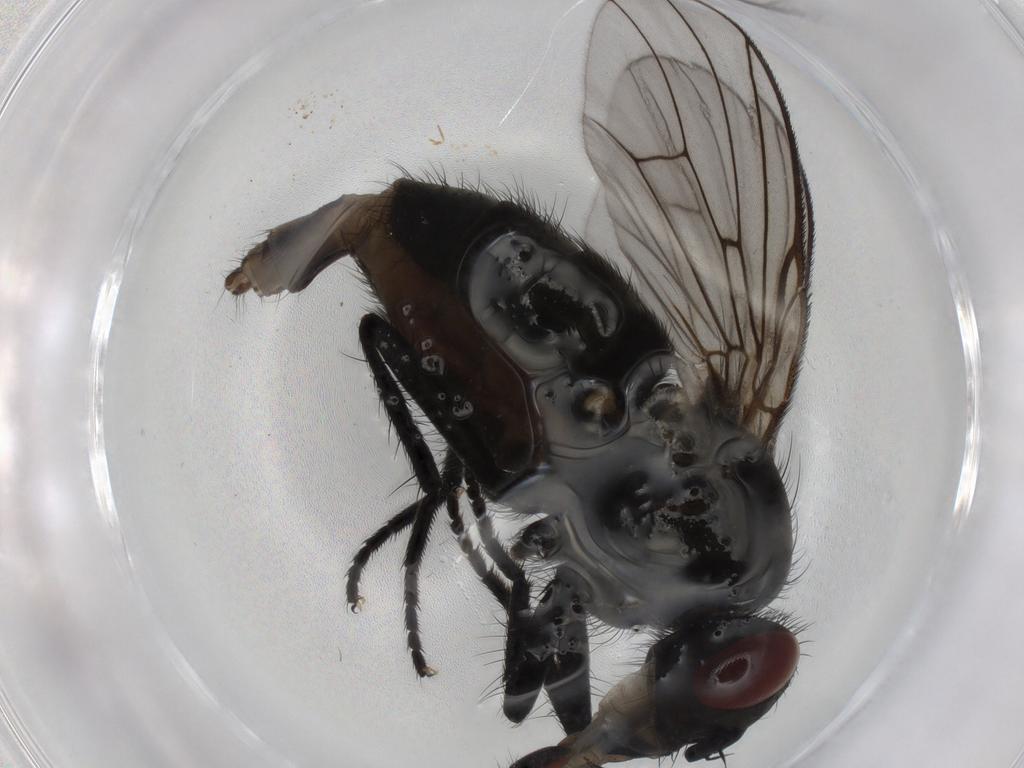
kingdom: Animalia
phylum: Arthropoda
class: Insecta
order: Diptera
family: Muscidae
